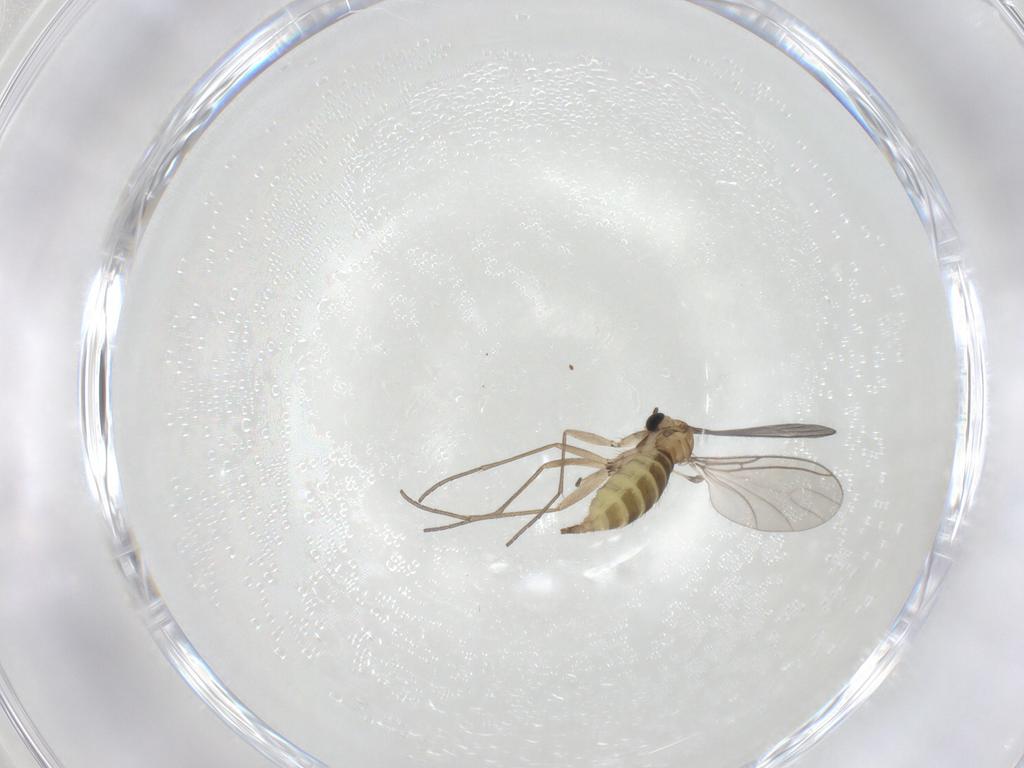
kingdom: Animalia
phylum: Arthropoda
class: Insecta
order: Diptera
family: Sciaridae
